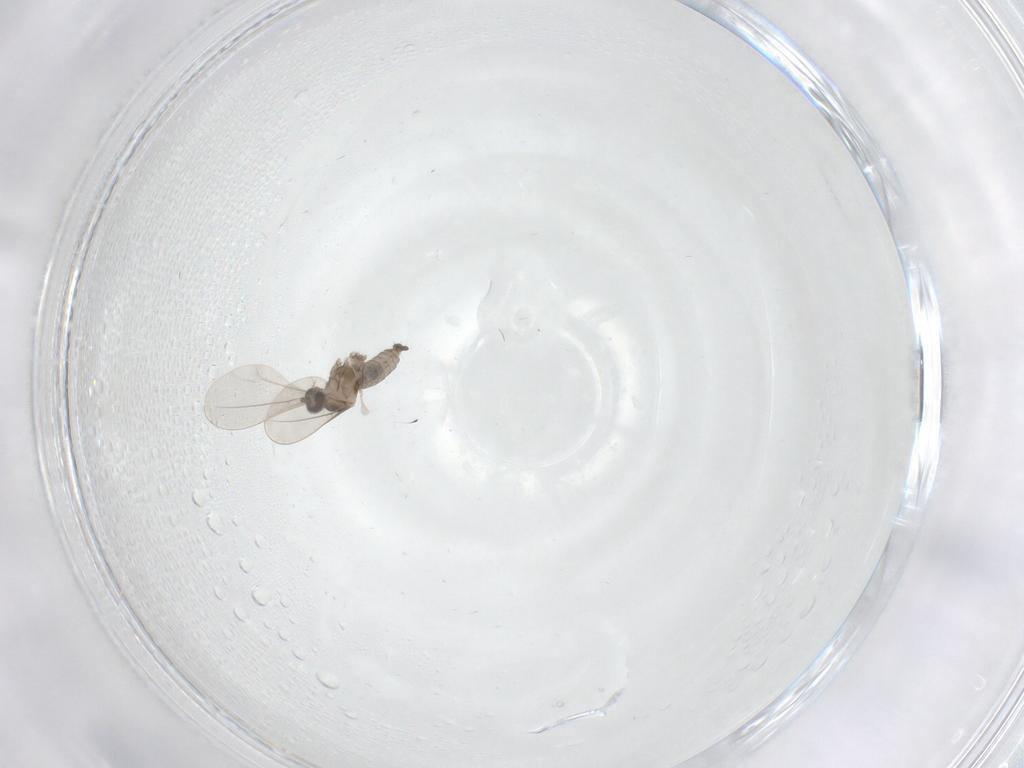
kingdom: Animalia
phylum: Arthropoda
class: Insecta
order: Diptera
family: Cecidomyiidae
